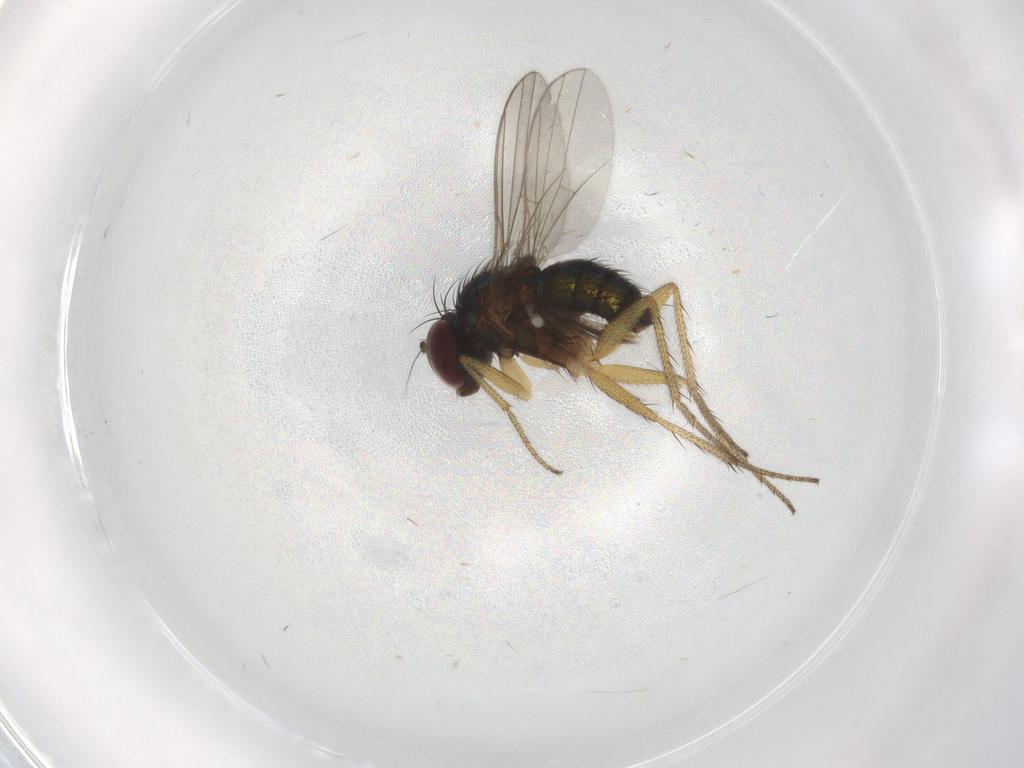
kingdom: Animalia
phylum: Arthropoda
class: Insecta
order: Diptera
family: Dolichopodidae
